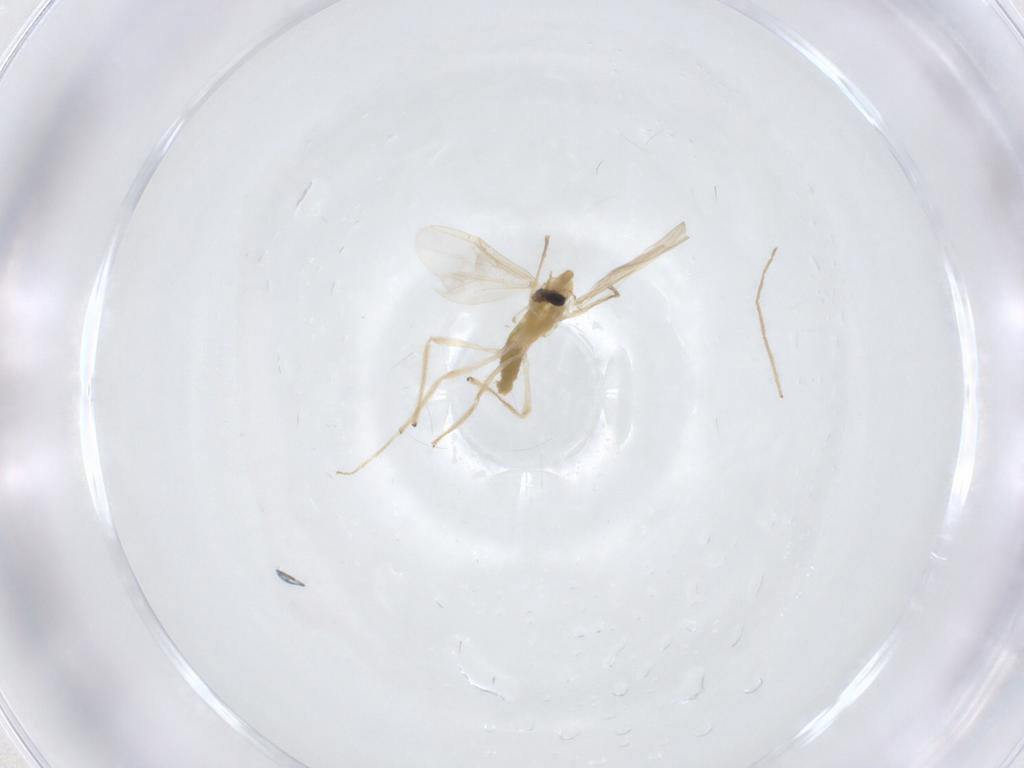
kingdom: Animalia
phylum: Arthropoda
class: Insecta
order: Diptera
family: Chironomidae
